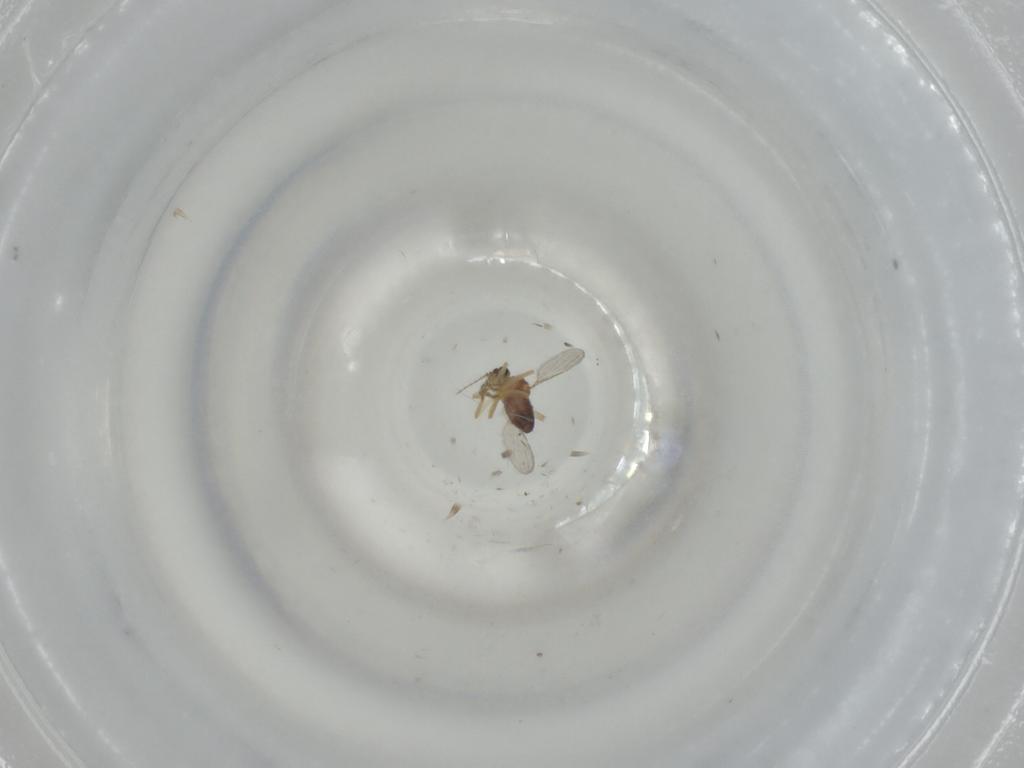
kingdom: Animalia
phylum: Arthropoda
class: Insecta
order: Diptera
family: Ceratopogonidae
